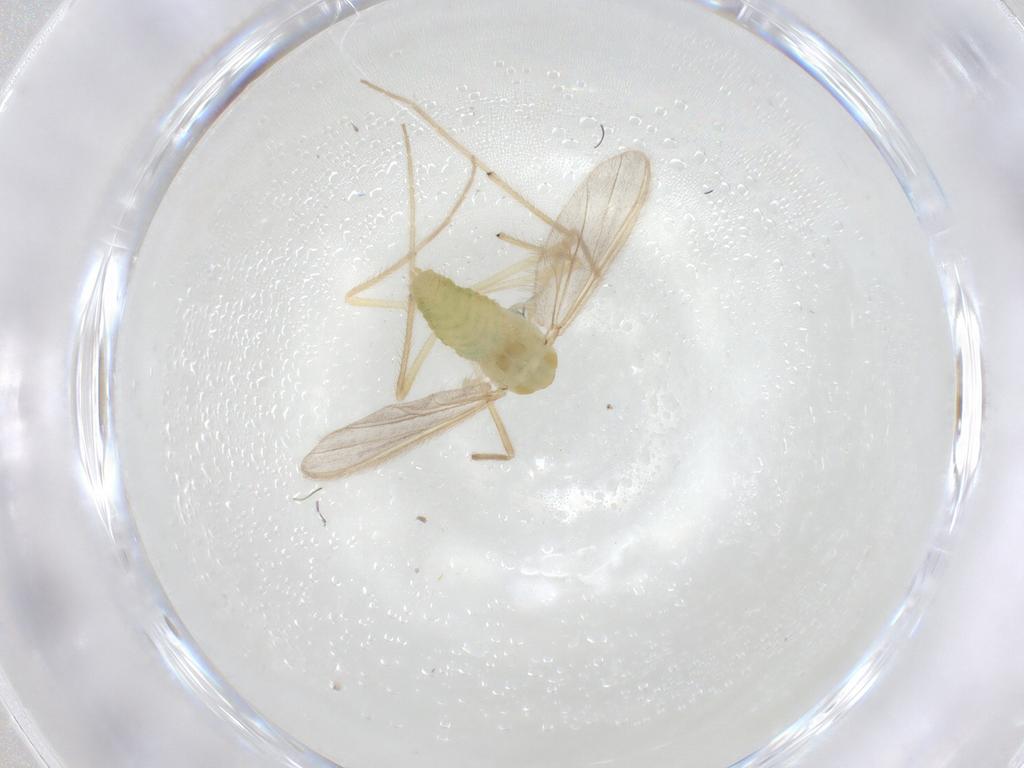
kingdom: Animalia
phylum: Arthropoda
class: Insecta
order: Diptera
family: Chironomidae
